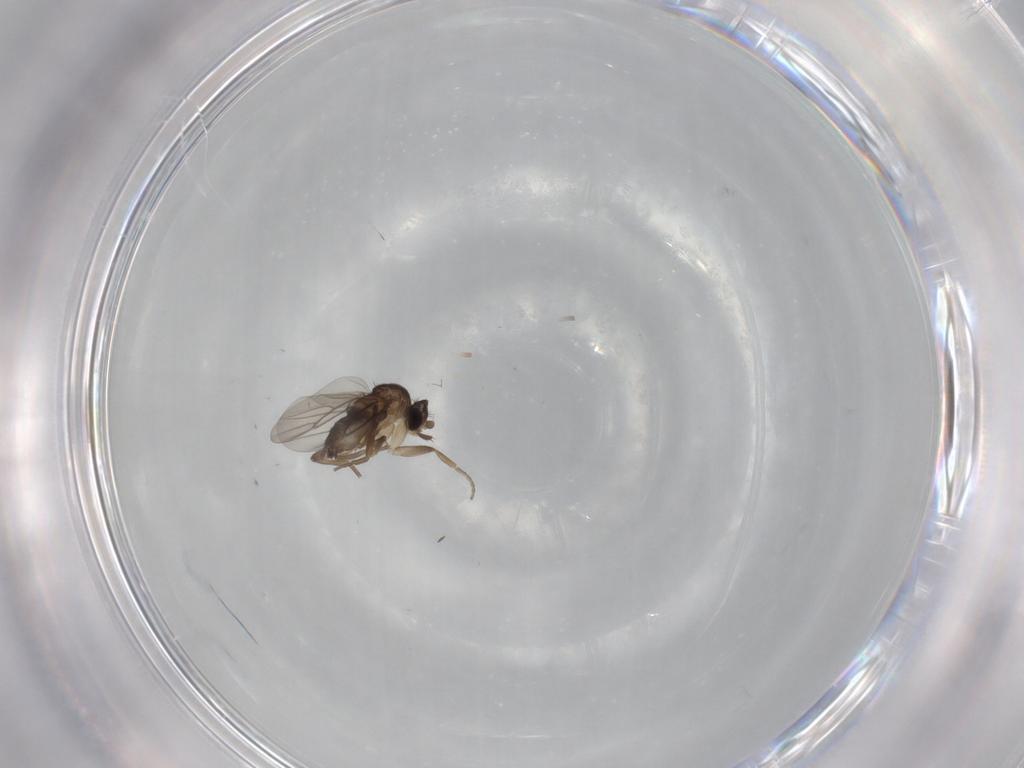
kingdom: Animalia
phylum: Arthropoda
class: Insecta
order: Diptera
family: Phoridae
